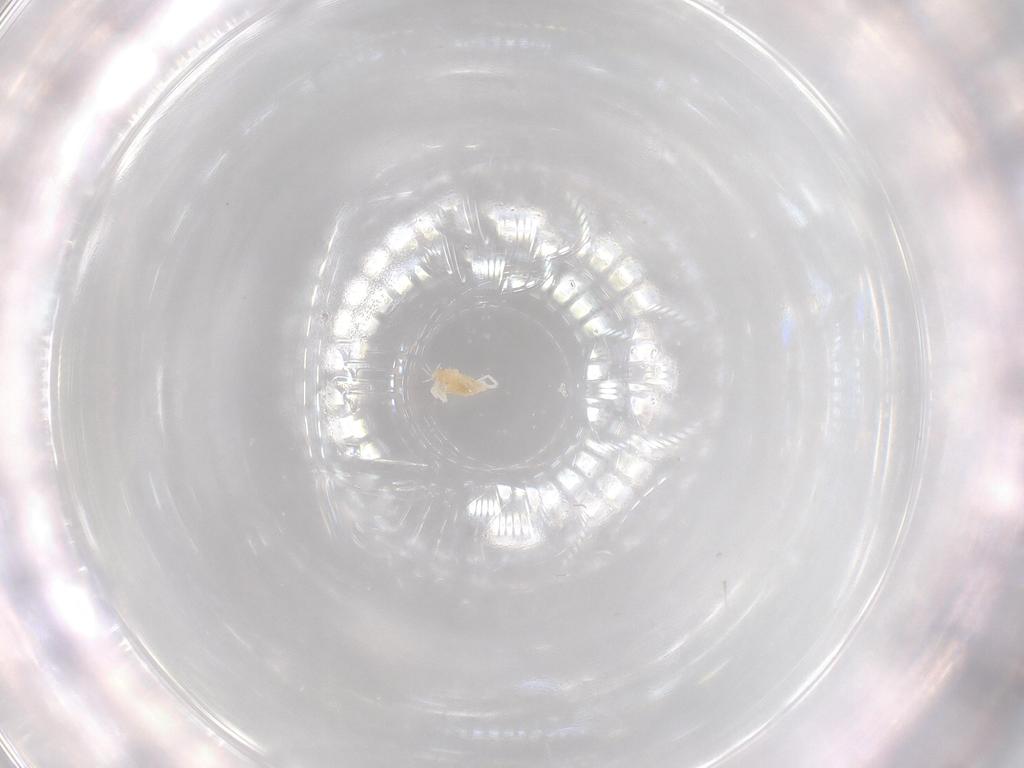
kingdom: Animalia
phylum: Arthropoda
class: Arachnida
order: Trombidiformes
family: Eupodidae
